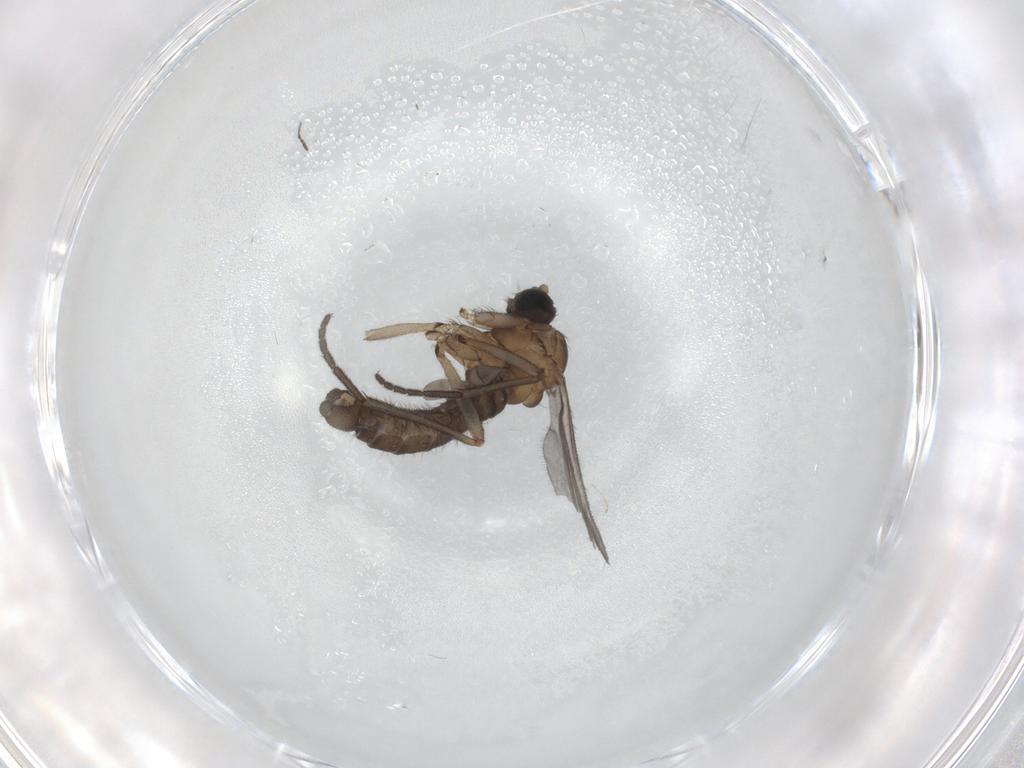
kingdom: Animalia
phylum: Arthropoda
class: Insecta
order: Diptera
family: Sciaridae
